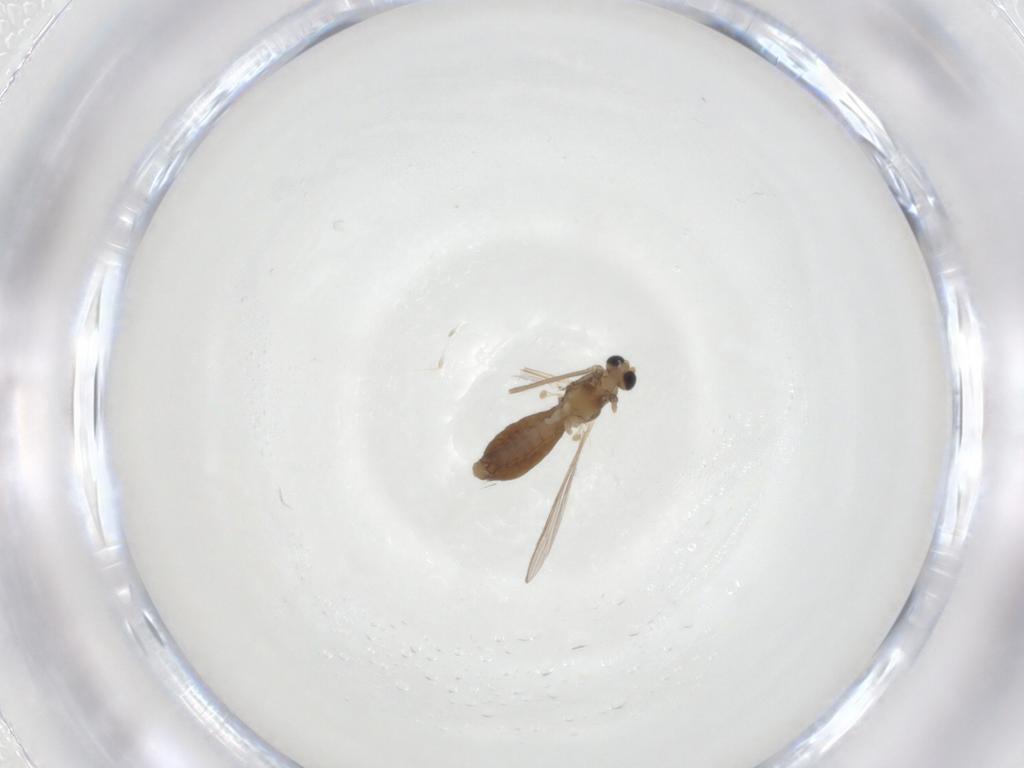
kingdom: Animalia
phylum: Arthropoda
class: Insecta
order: Diptera
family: Chironomidae
